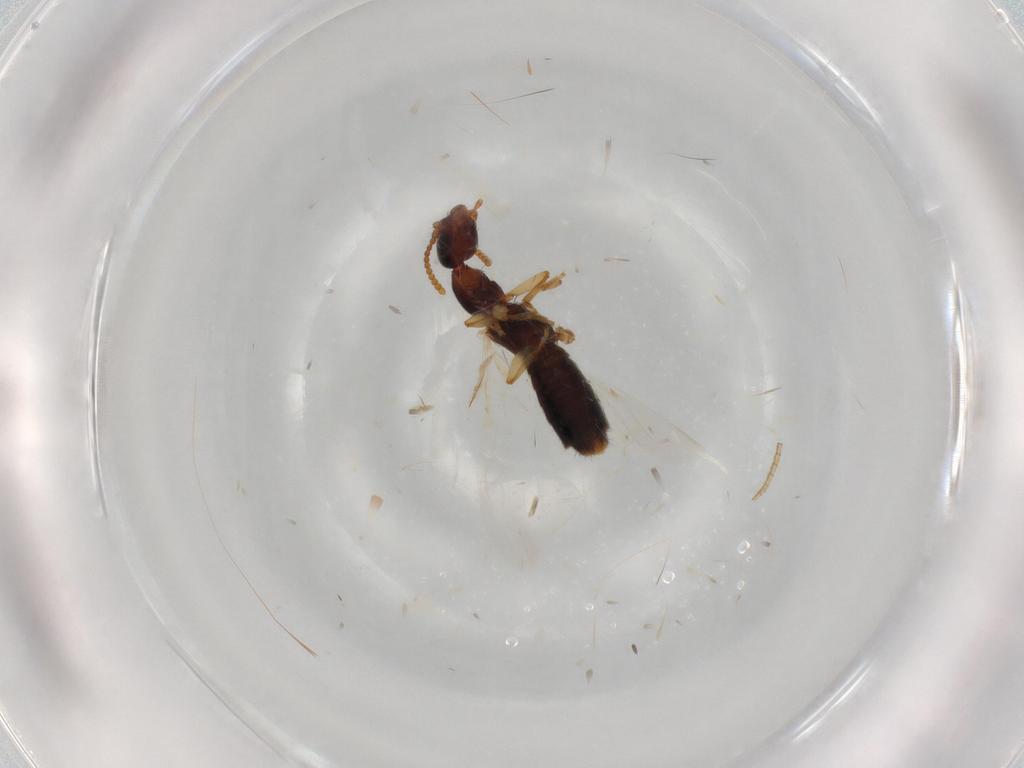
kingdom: Animalia
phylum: Arthropoda
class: Insecta
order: Coleoptera
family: Staphylinidae
